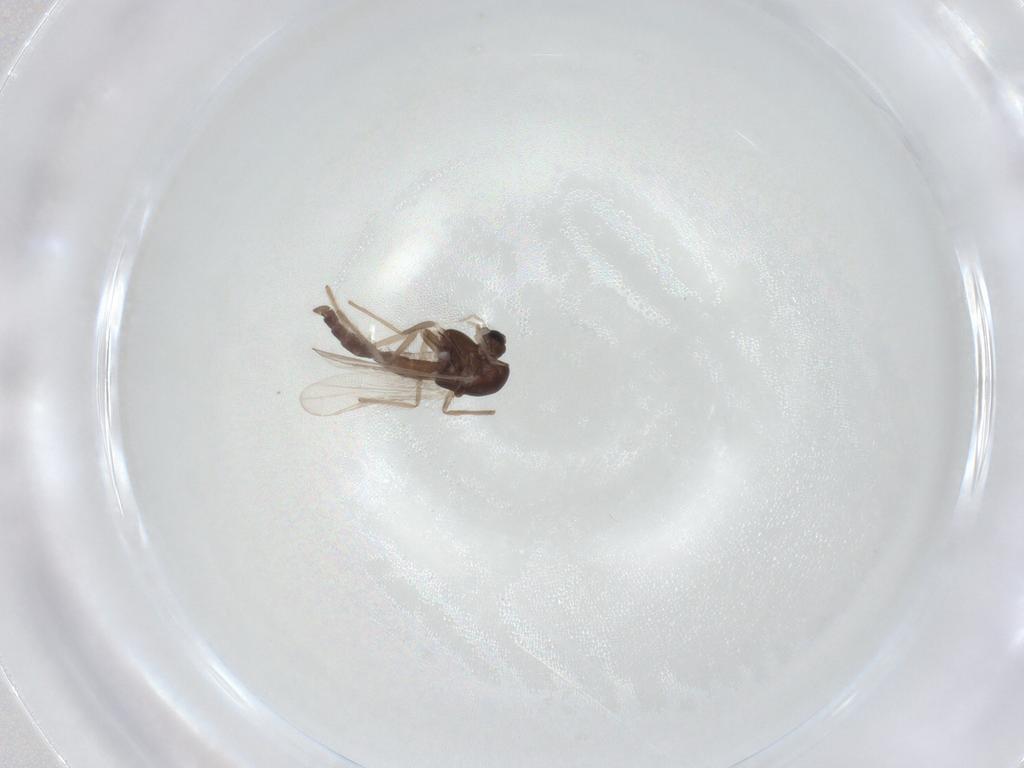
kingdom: Animalia
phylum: Arthropoda
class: Insecta
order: Diptera
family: Chironomidae
